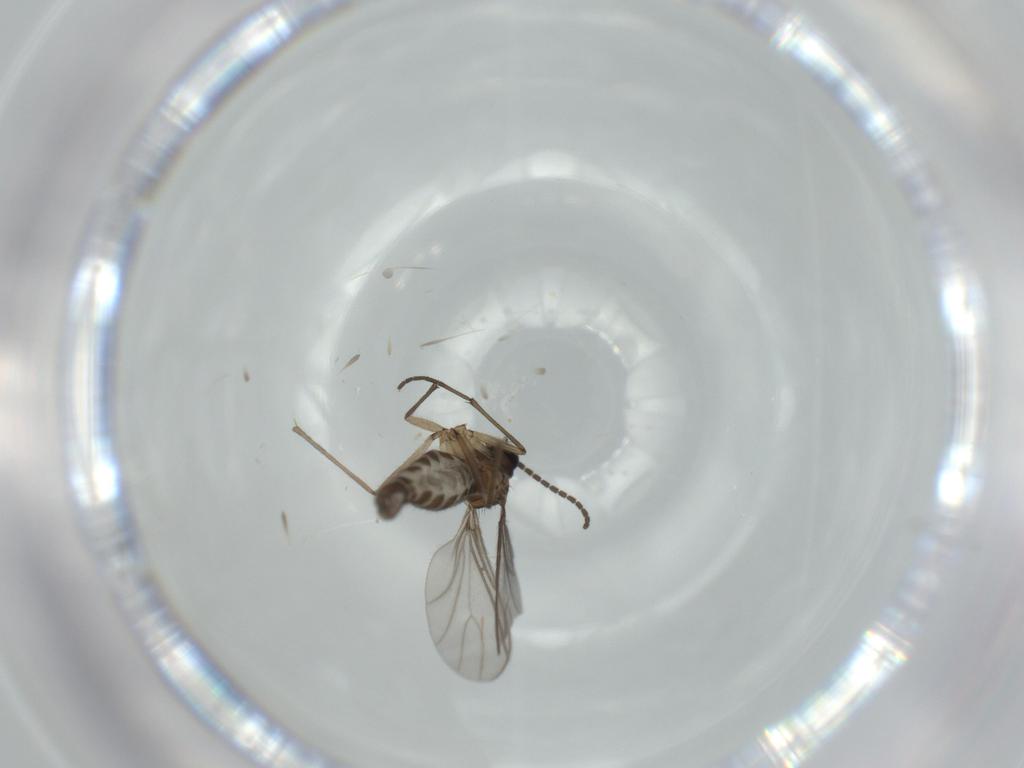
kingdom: Animalia
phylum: Arthropoda
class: Insecta
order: Diptera
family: Sciaridae
